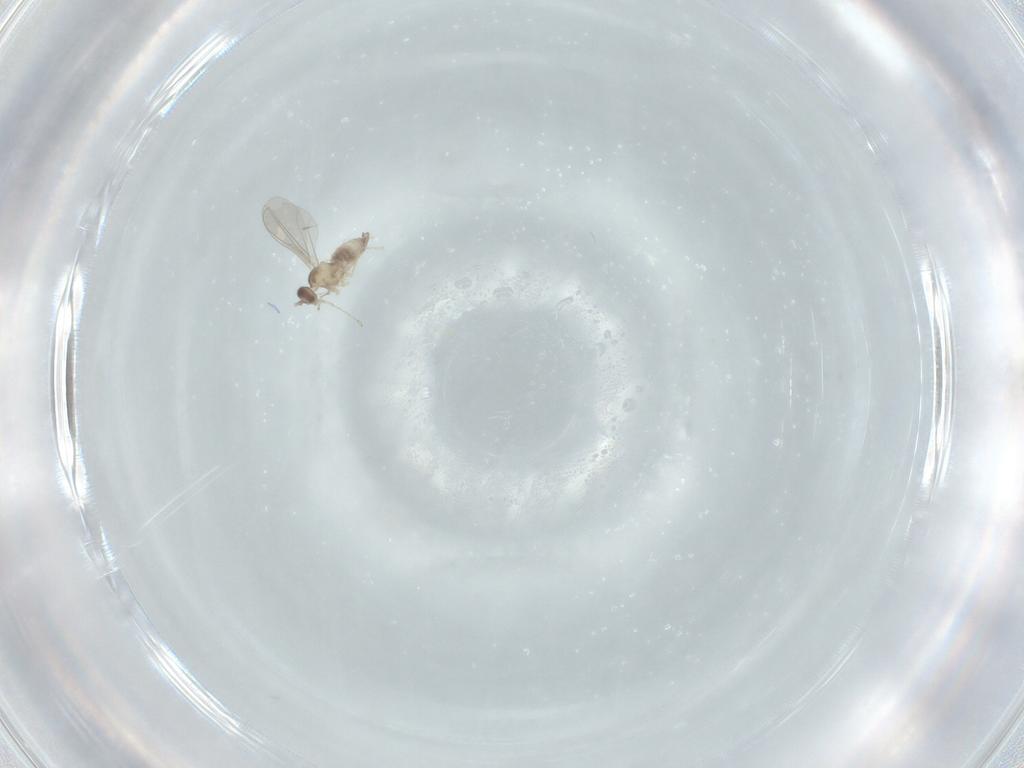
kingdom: Animalia
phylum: Arthropoda
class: Insecta
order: Diptera
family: Cecidomyiidae
